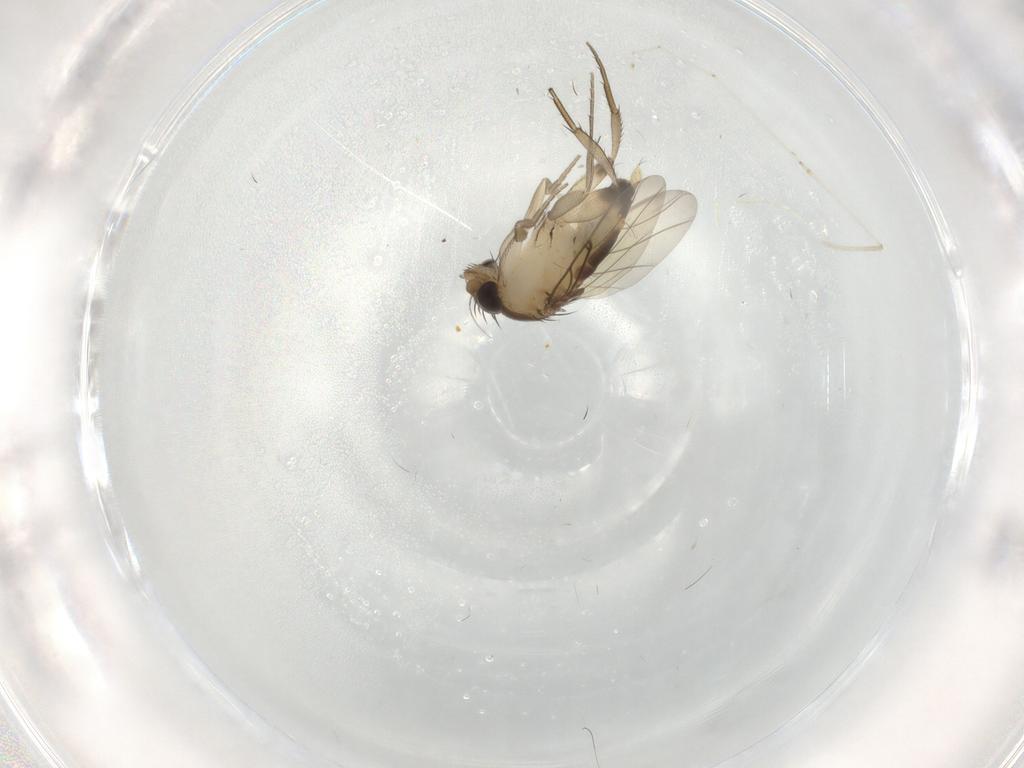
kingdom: Animalia
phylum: Arthropoda
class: Insecta
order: Diptera
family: Phoridae
